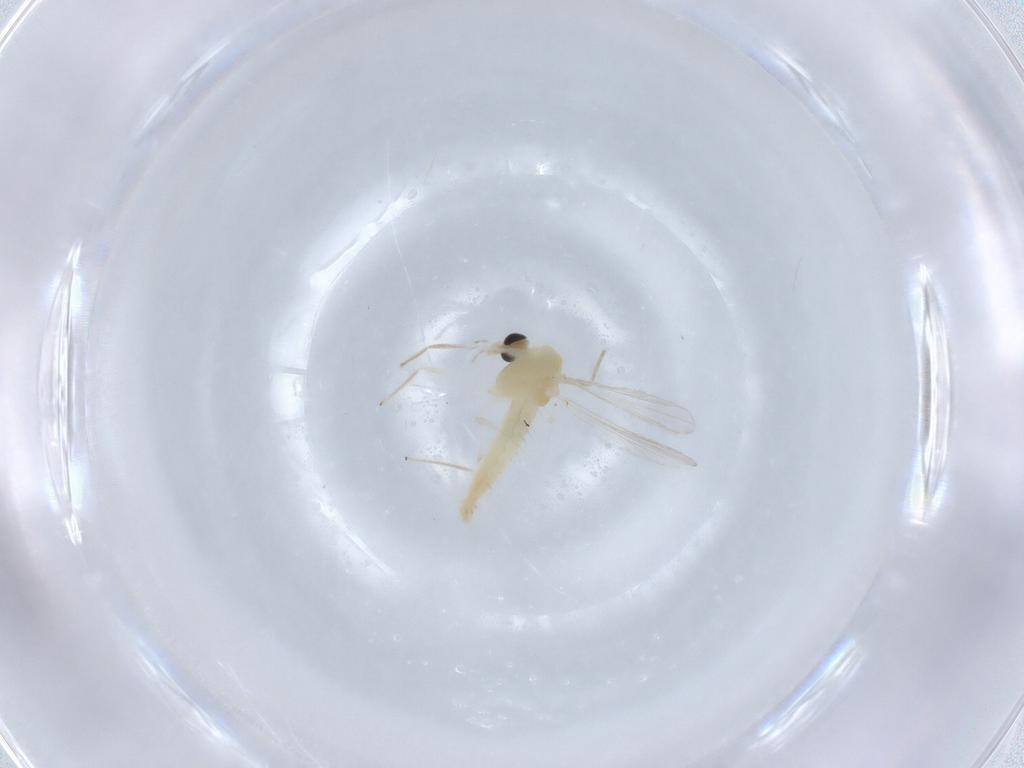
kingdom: Animalia
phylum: Arthropoda
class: Insecta
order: Diptera
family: Chironomidae
